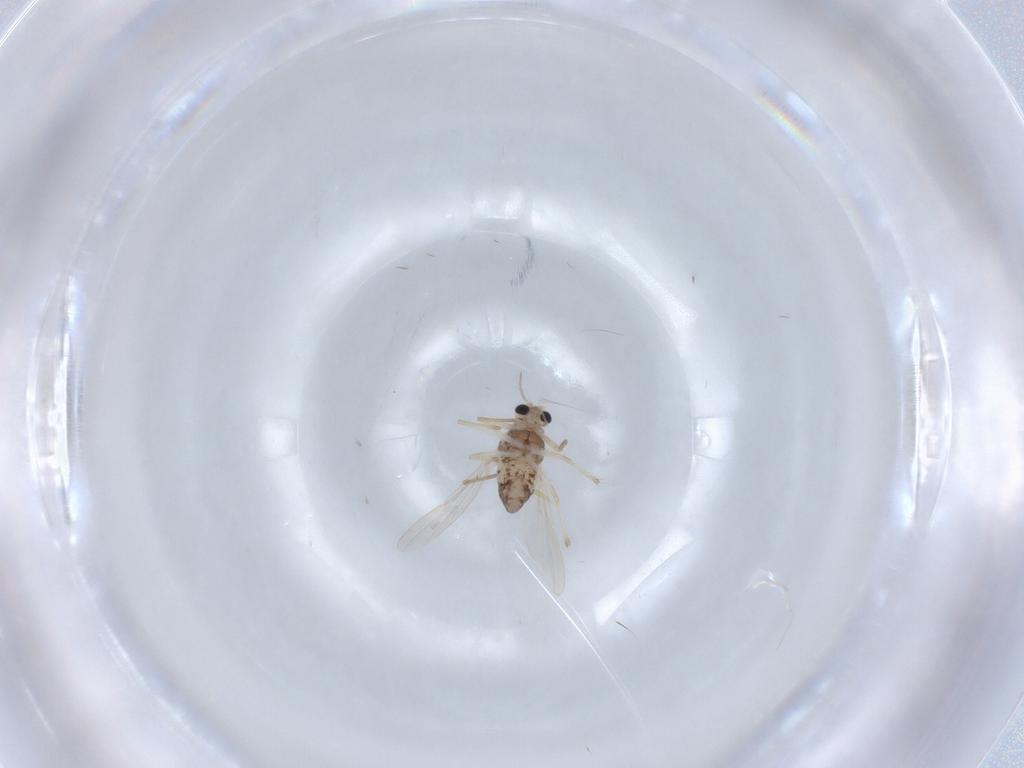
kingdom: Animalia
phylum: Arthropoda
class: Insecta
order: Diptera
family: Chironomidae
